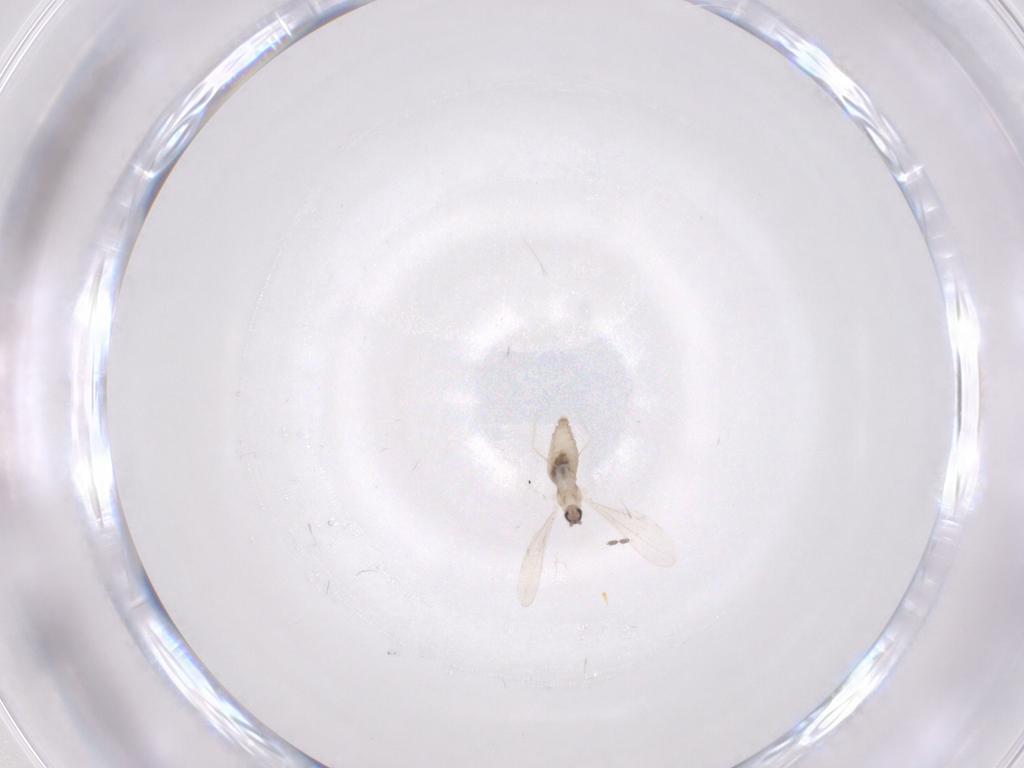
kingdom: Animalia
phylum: Arthropoda
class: Insecta
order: Diptera
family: Cecidomyiidae
